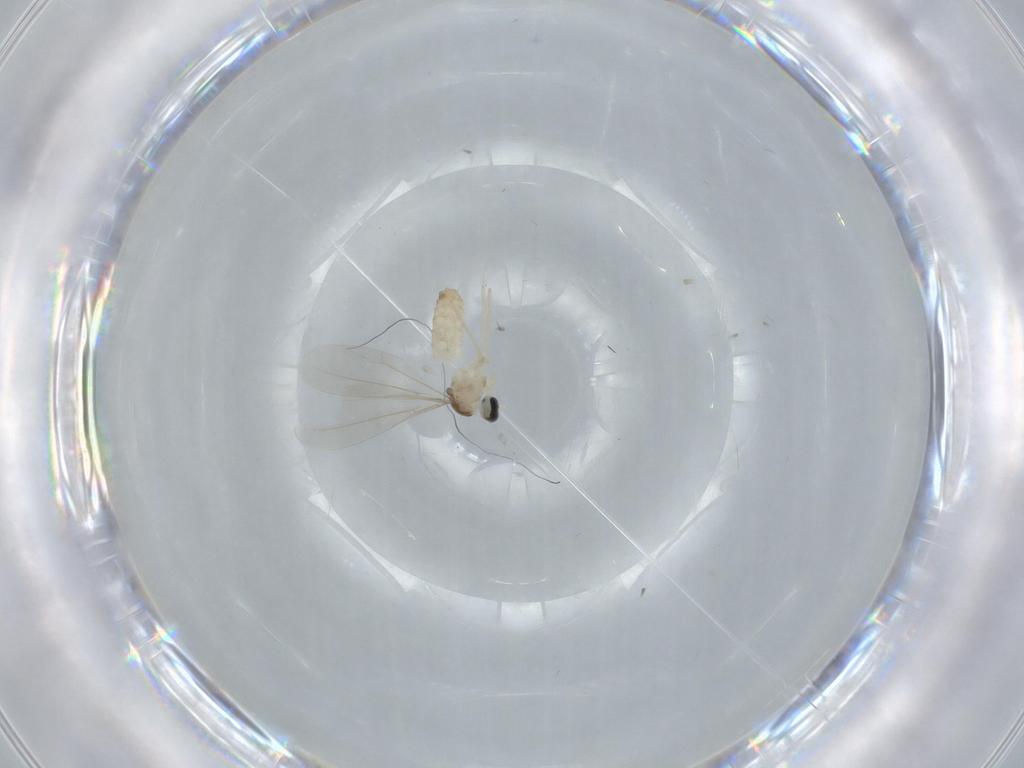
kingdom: Animalia
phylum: Arthropoda
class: Insecta
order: Diptera
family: Cecidomyiidae
